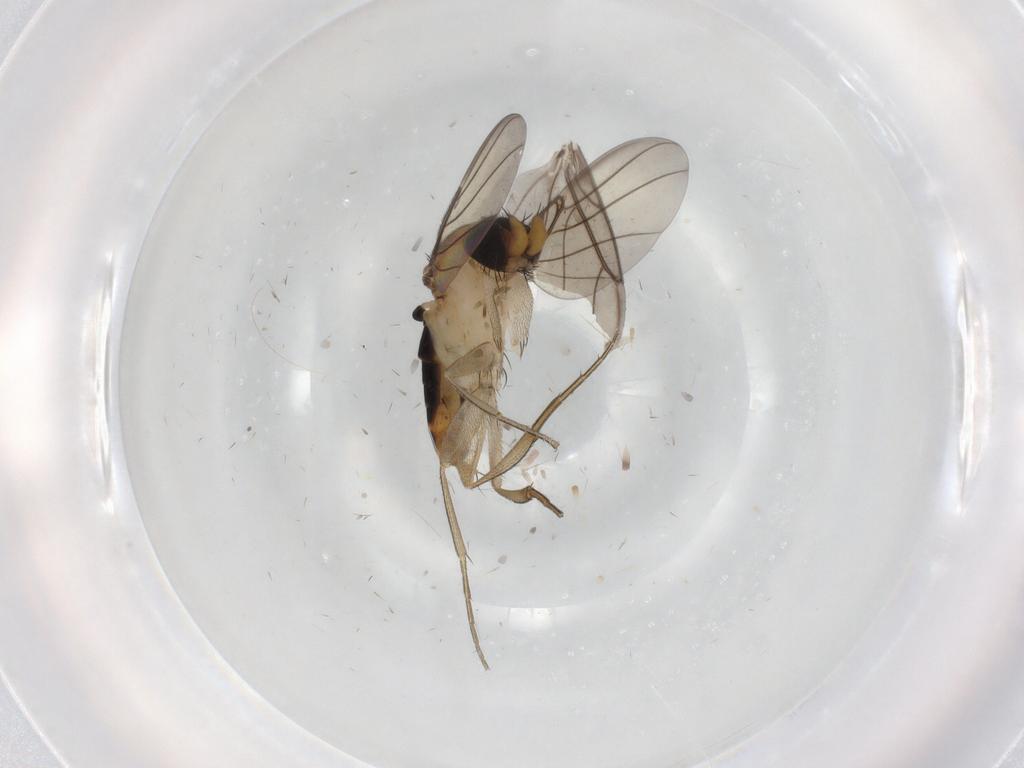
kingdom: Animalia
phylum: Arthropoda
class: Insecta
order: Diptera
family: Phoridae
